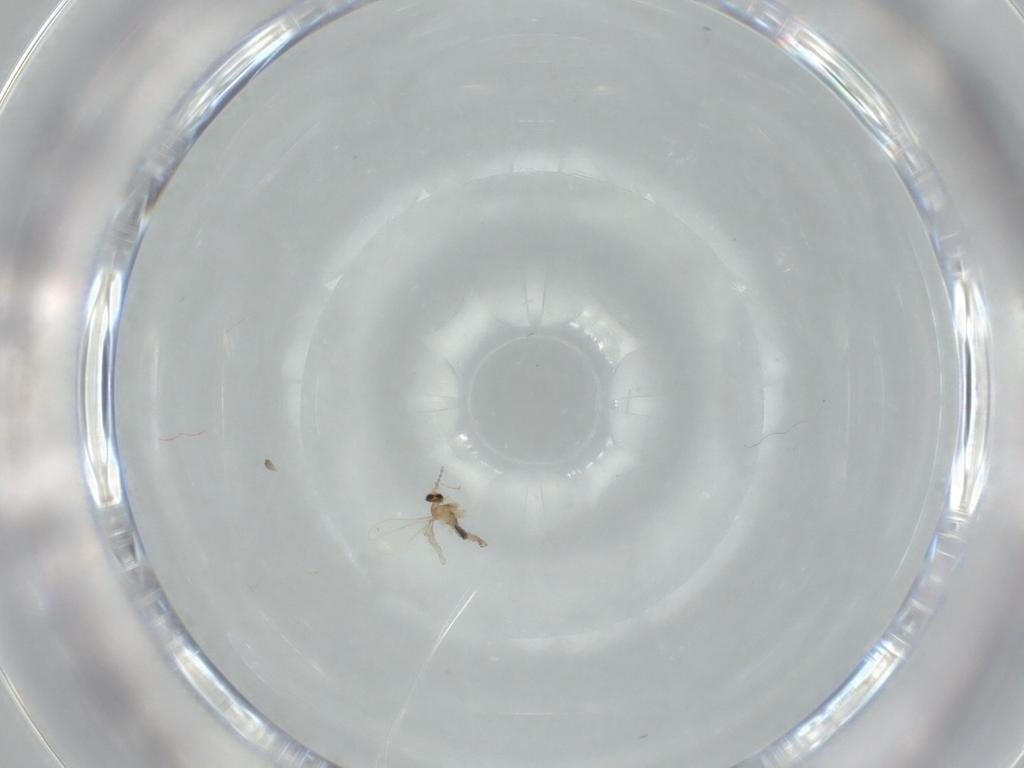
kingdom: Animalia
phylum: Arthropoda
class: Insecta
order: Diptera
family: Cecidomyiidae
